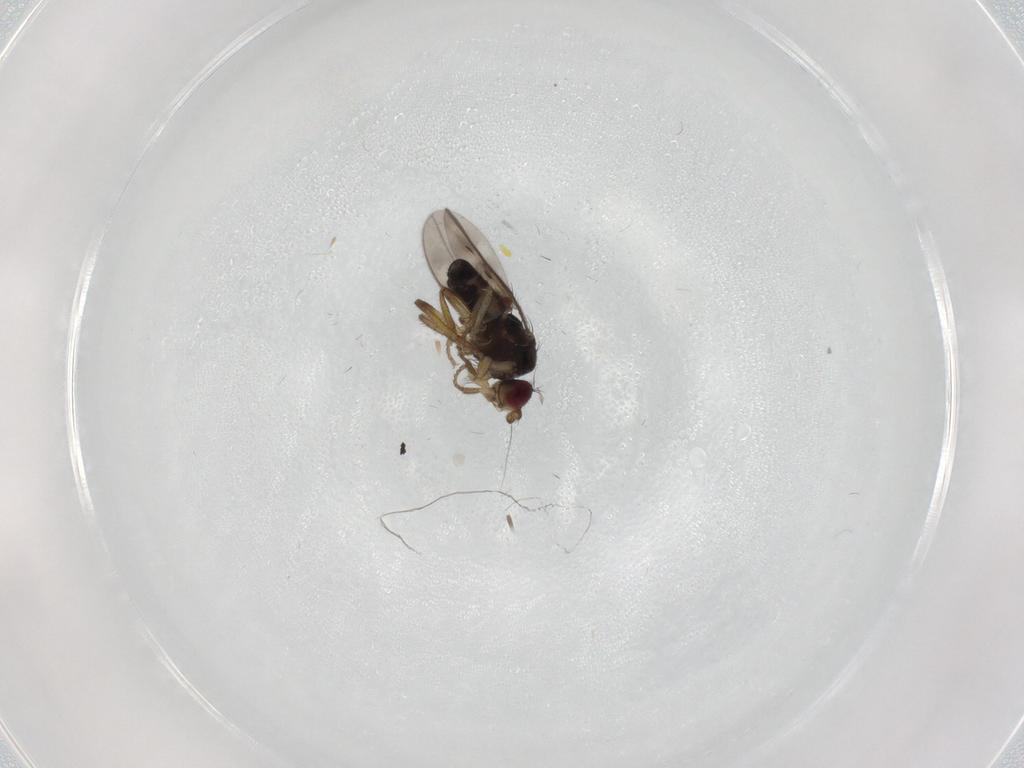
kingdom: Animalia
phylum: Arthropoda
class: Insecta
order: Diptera
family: Sphaeroceridae
